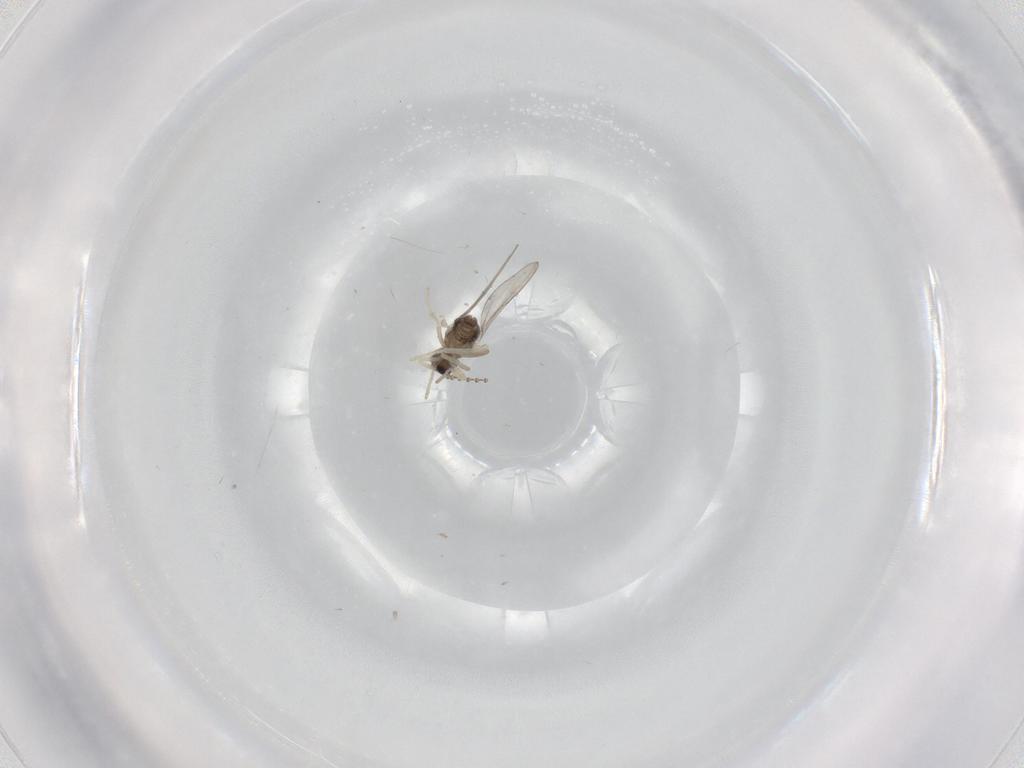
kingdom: Animalia
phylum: Arthropoda
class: Insecta
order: Diptera
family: Cecidomyiidae
